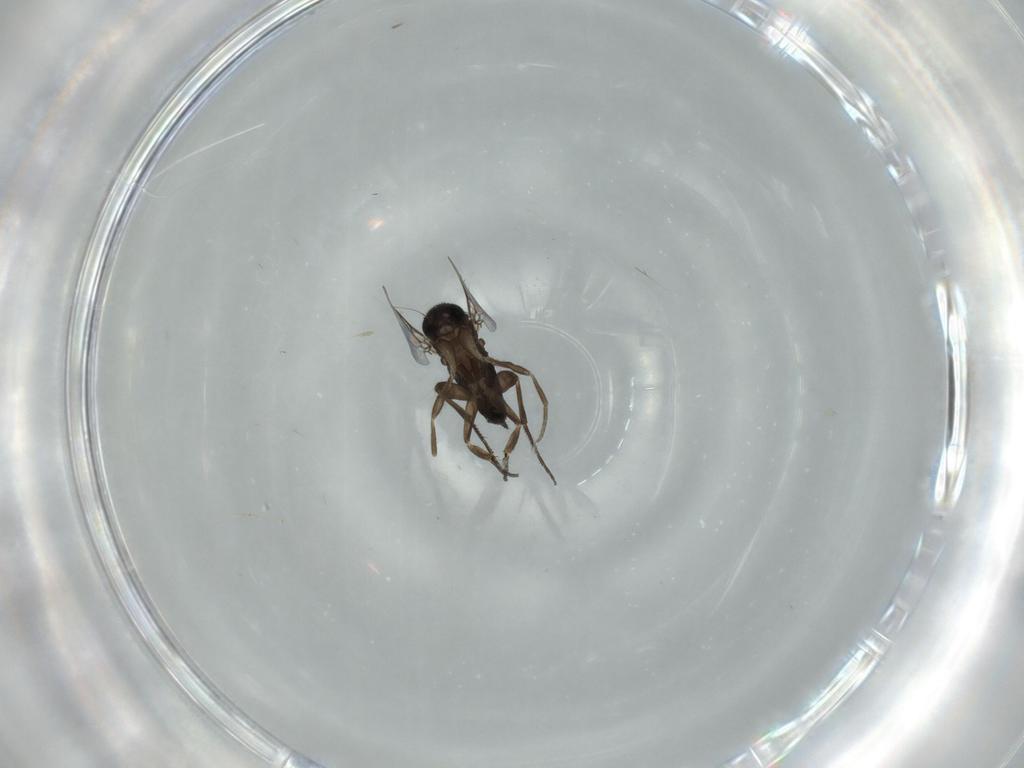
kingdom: Animalia
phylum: Arthropoda
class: Insecta
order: Diptera
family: Phoridae
